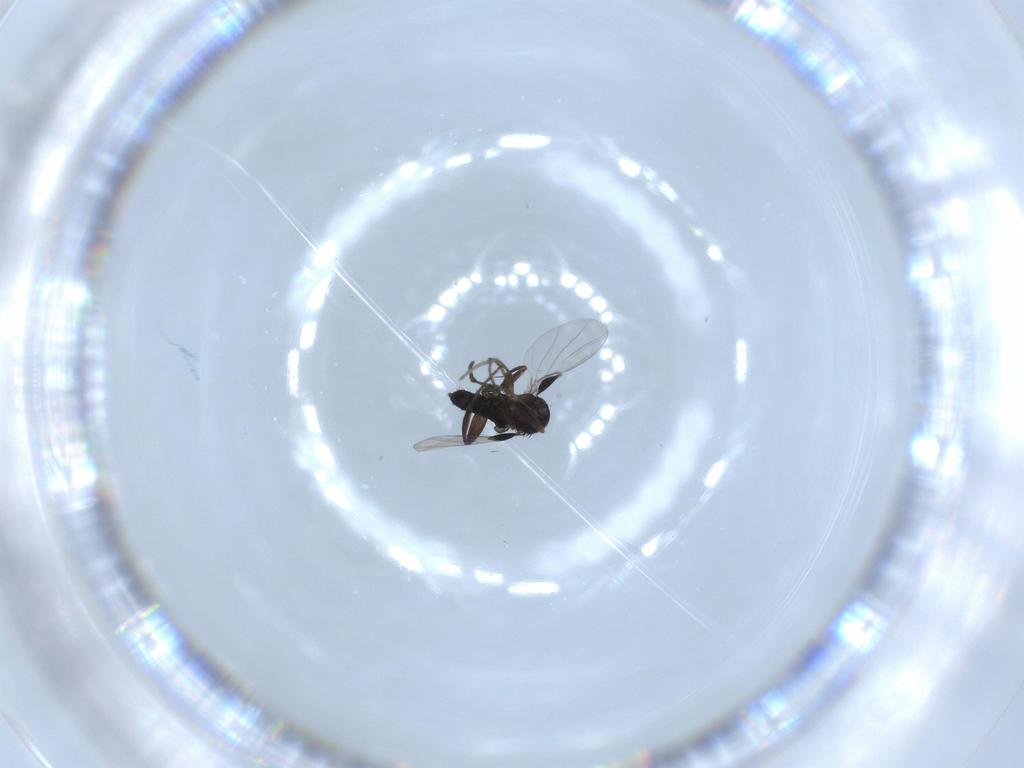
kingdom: Animalia
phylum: Arthropoda
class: Insecta
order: Diptera
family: Phoridae
